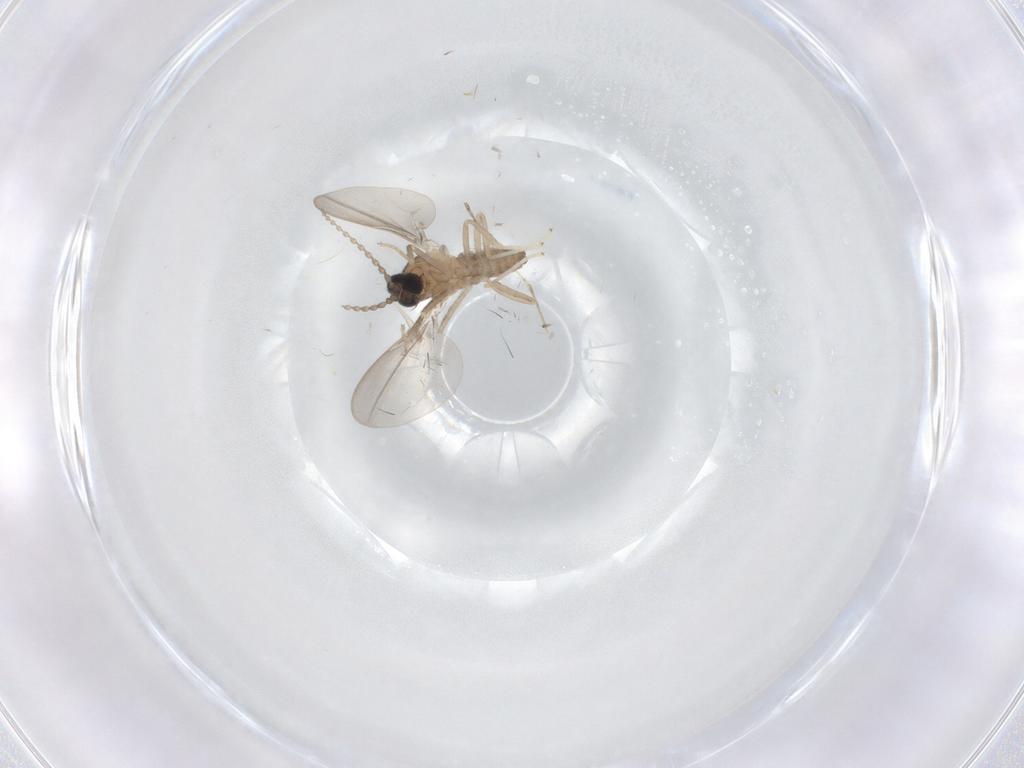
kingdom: Animalia
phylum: Arthropoda
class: Insecta
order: Diptera
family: Cecidomyiidae
